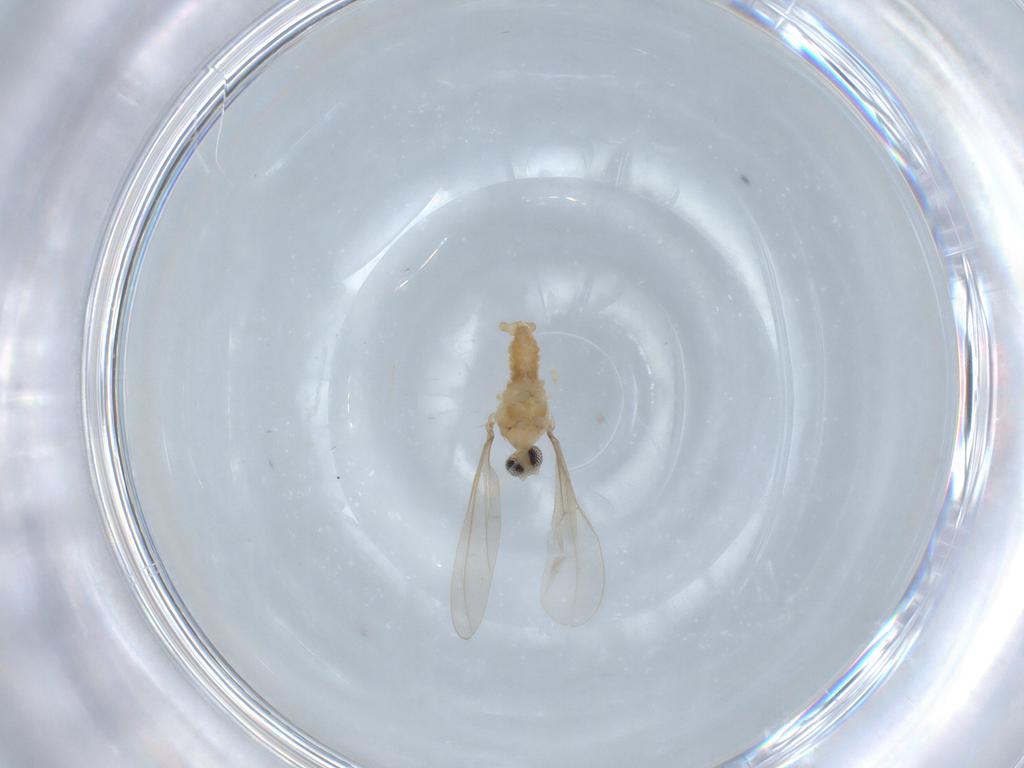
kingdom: Animalia
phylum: Arthropoda
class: Insecta
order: Diptera
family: Cecidomyiidae
